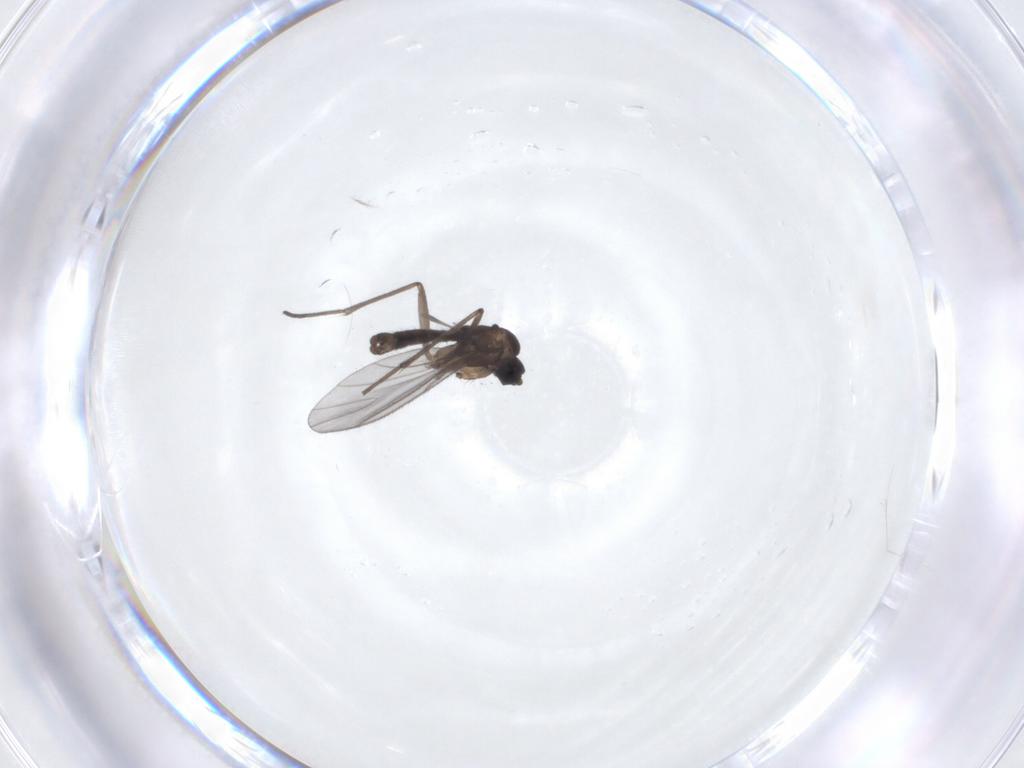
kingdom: Animalia
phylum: Arthropoda
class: Insecta
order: Diptera
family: Sciaridae
